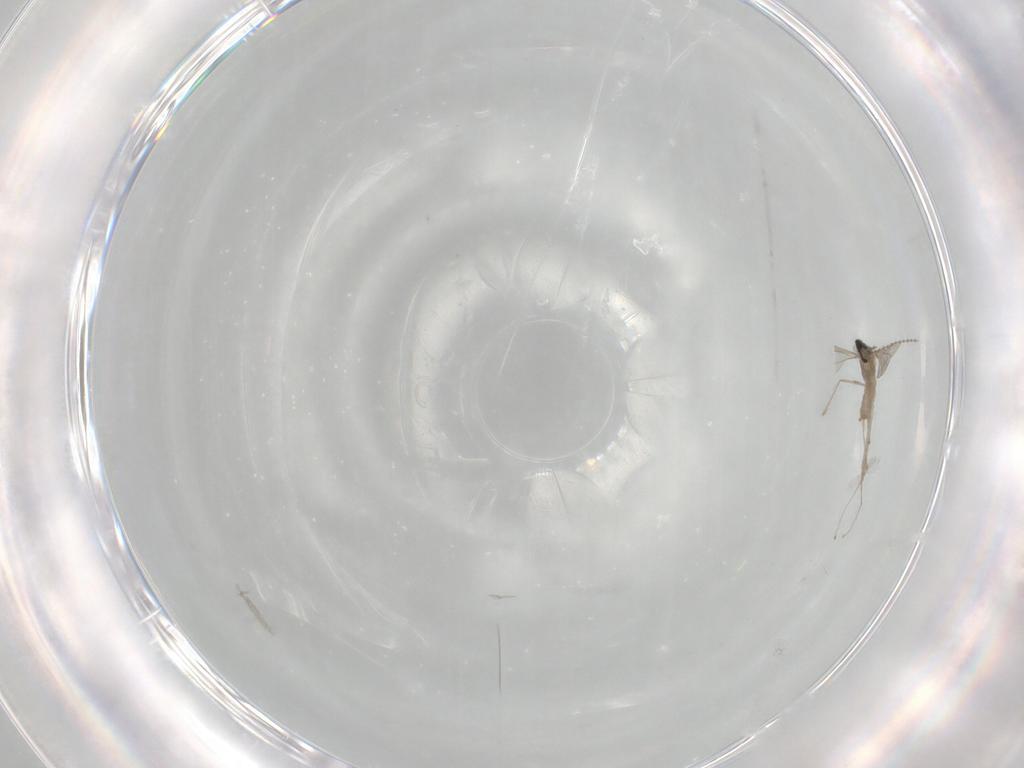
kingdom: Animalia
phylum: Arthropoda
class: Insecta
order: Diptera
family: Cecidomyiidae
